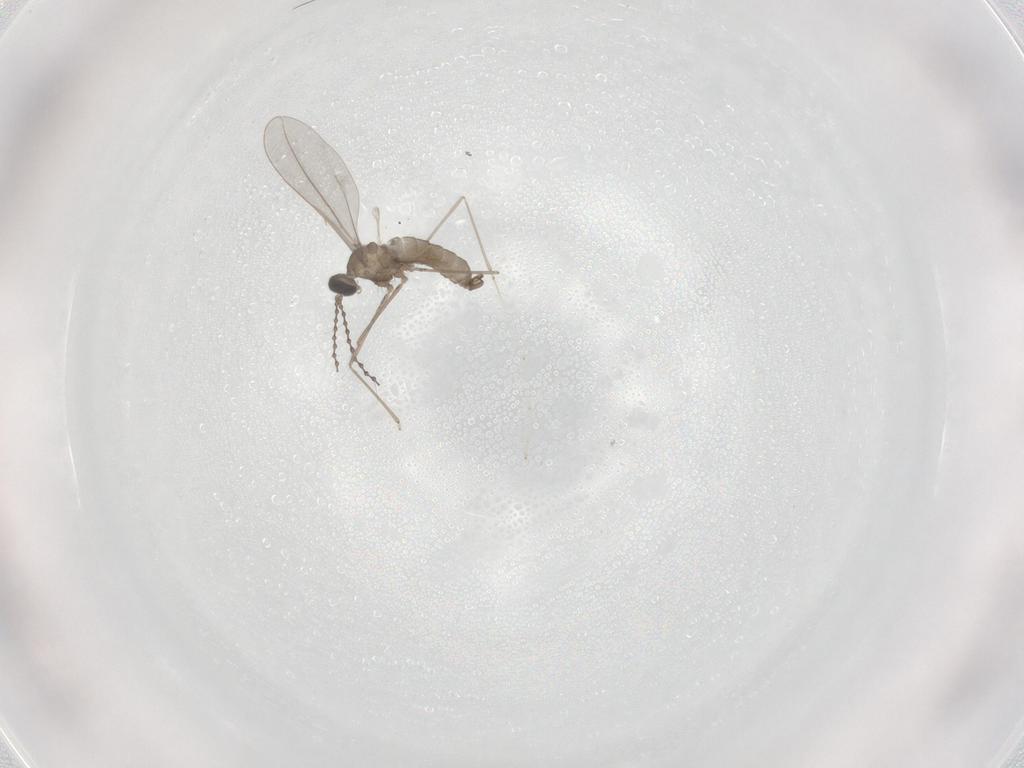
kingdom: Animalia
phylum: Arthropoda
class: Insecta
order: Diptera
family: Cecidomyiidae
